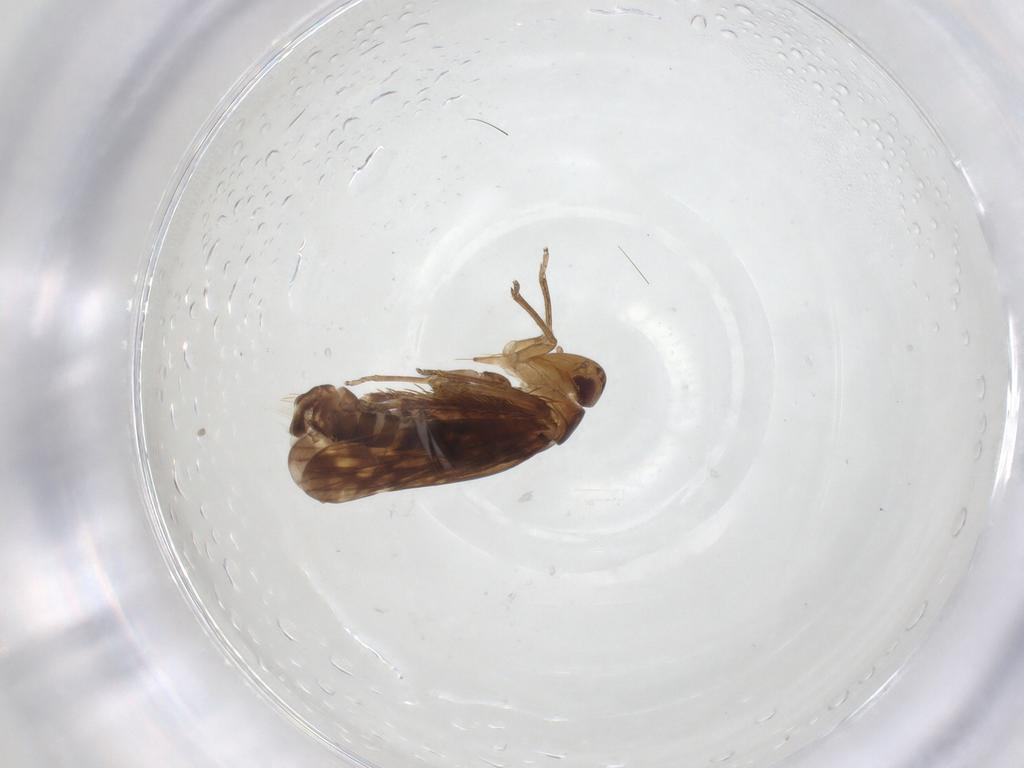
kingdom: Animalia
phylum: Arthropoda
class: Insecta
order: Hemiptera
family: Cicadellidae
